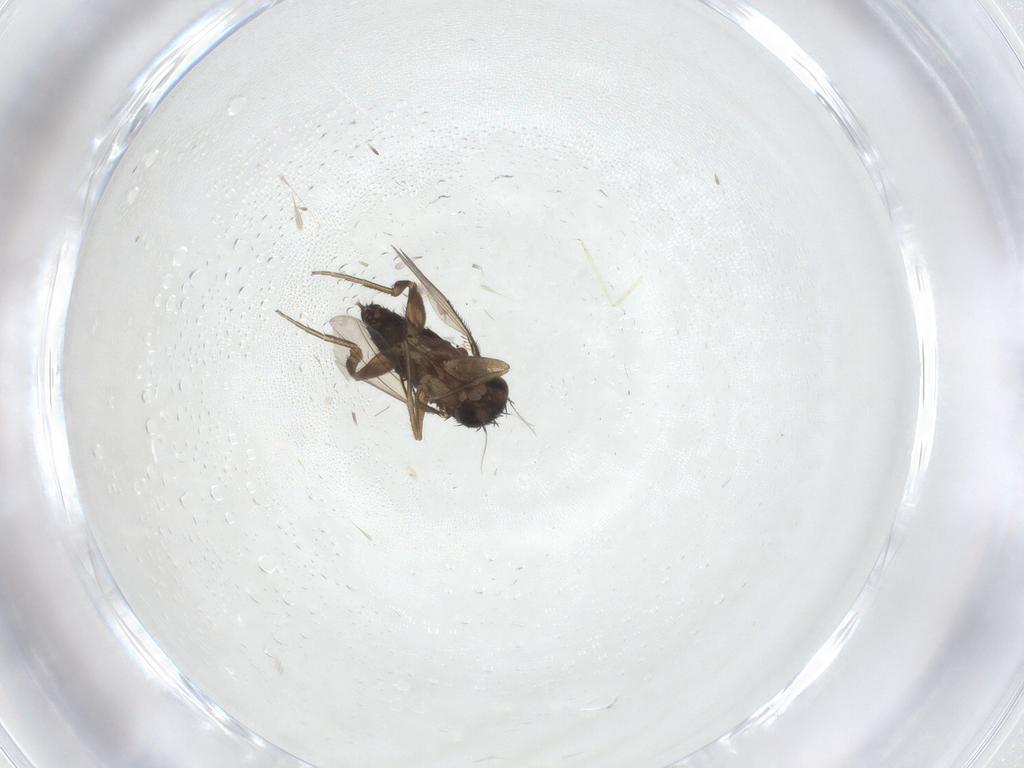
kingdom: Animalia
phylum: Arthropoda
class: Insecta
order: Diptera
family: Phoridae
